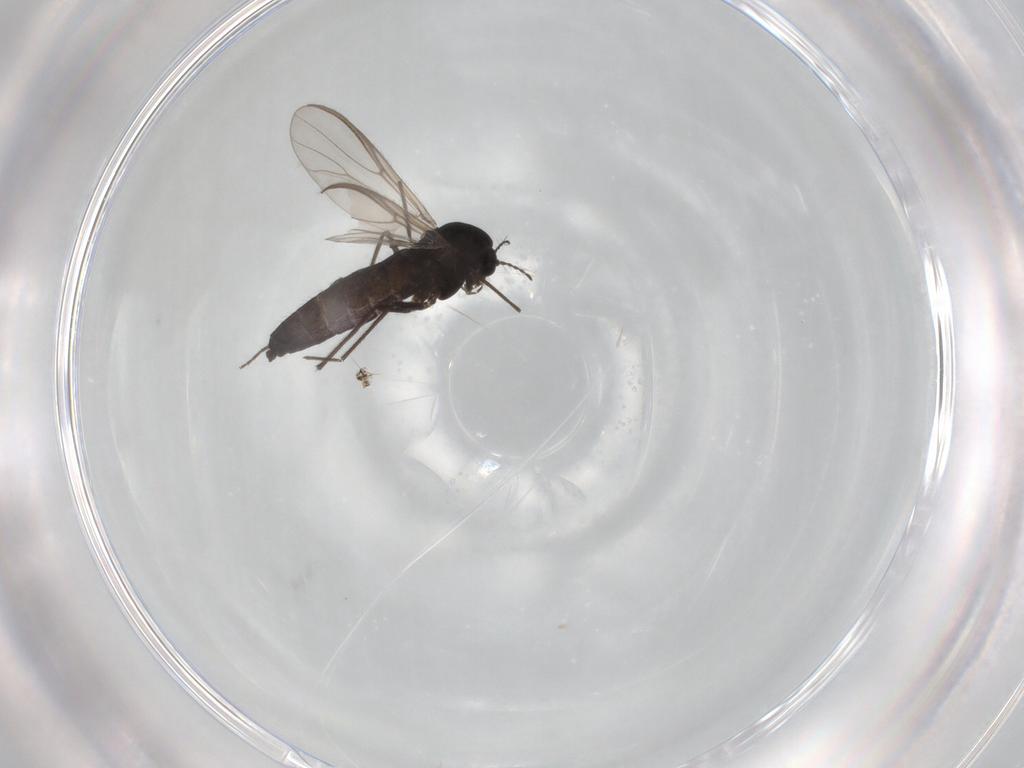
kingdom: Animalia
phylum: Arthropoda
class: Insecta
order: Diptera
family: Chironomidae
